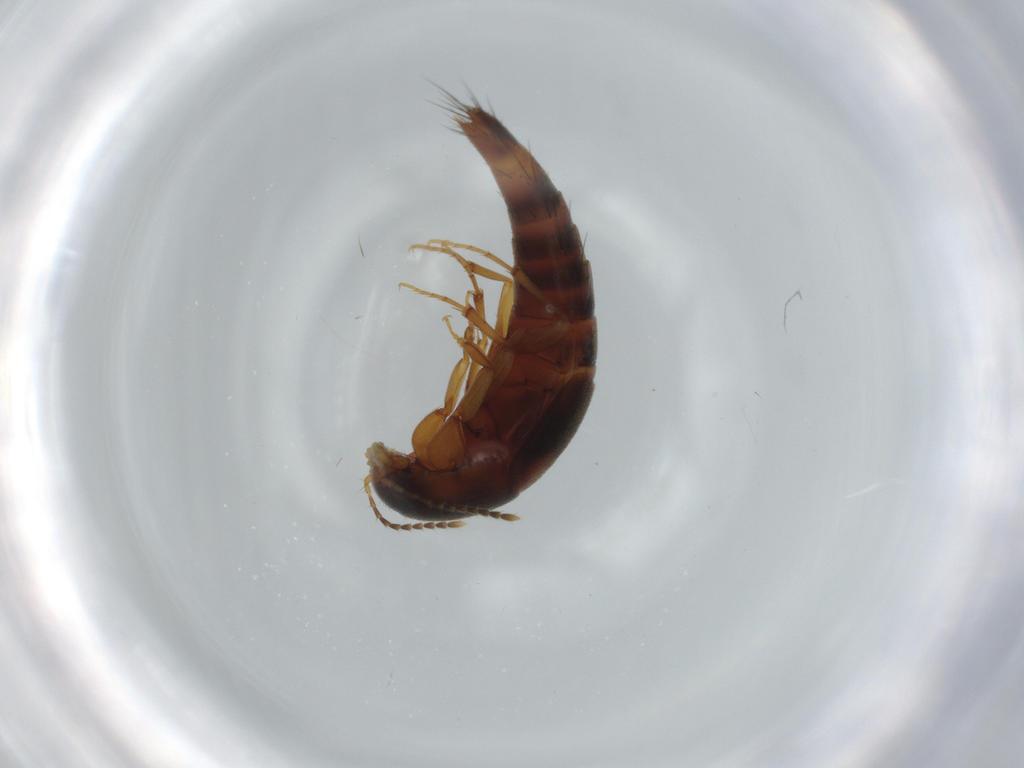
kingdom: Animalia
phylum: Arthropoda
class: Insecta
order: Coleoptera
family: Staphylinidae
